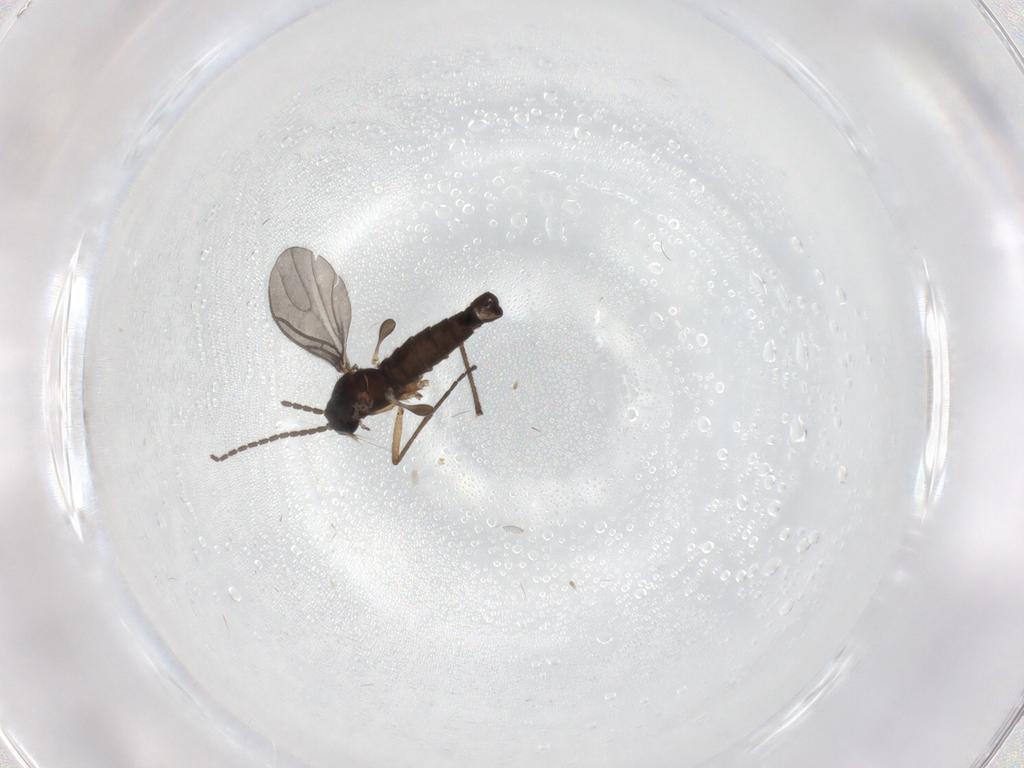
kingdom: Animalia
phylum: Arthropoda
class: Insecta
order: Diptera
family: Sciaridae
